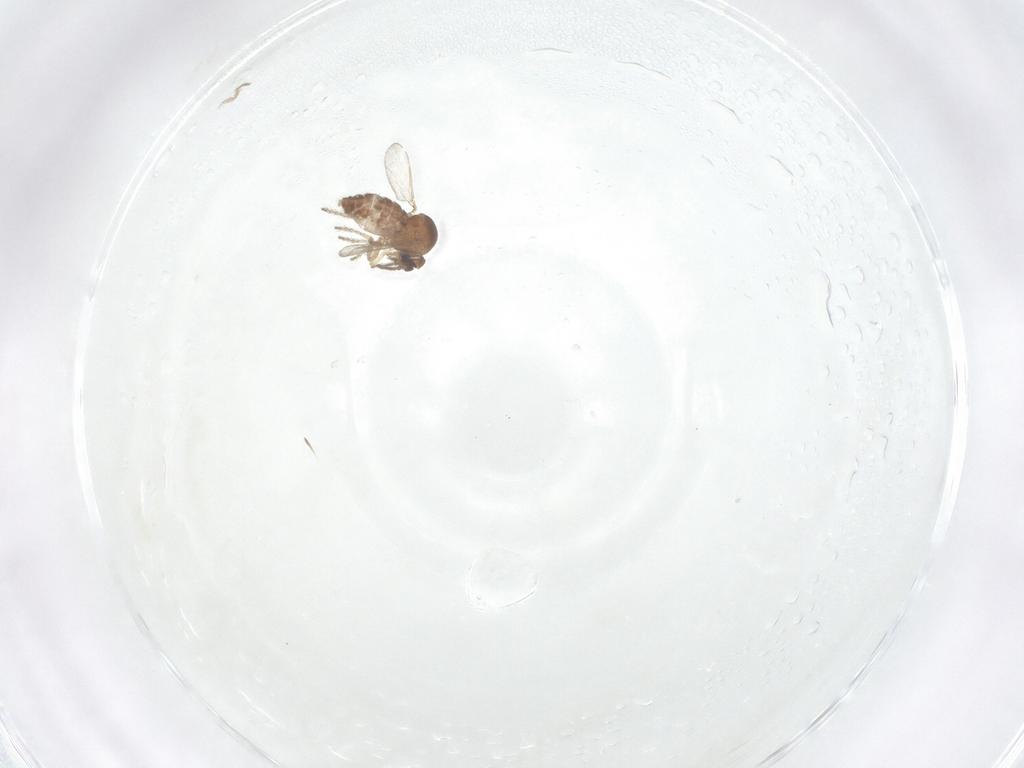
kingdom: Animalia
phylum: Arthropoda
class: Insecta
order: Diptera
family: Ceratopogonidae
